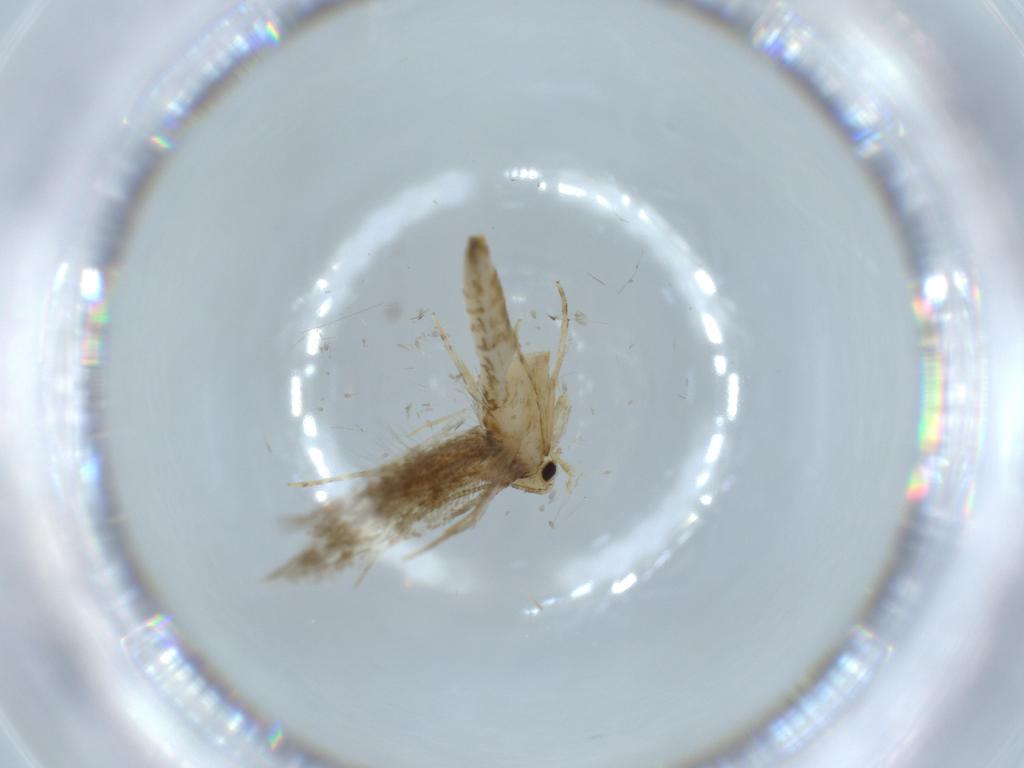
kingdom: Animalia
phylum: Arthropoda
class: Insecta
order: Lepidoptera
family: Tineidae
